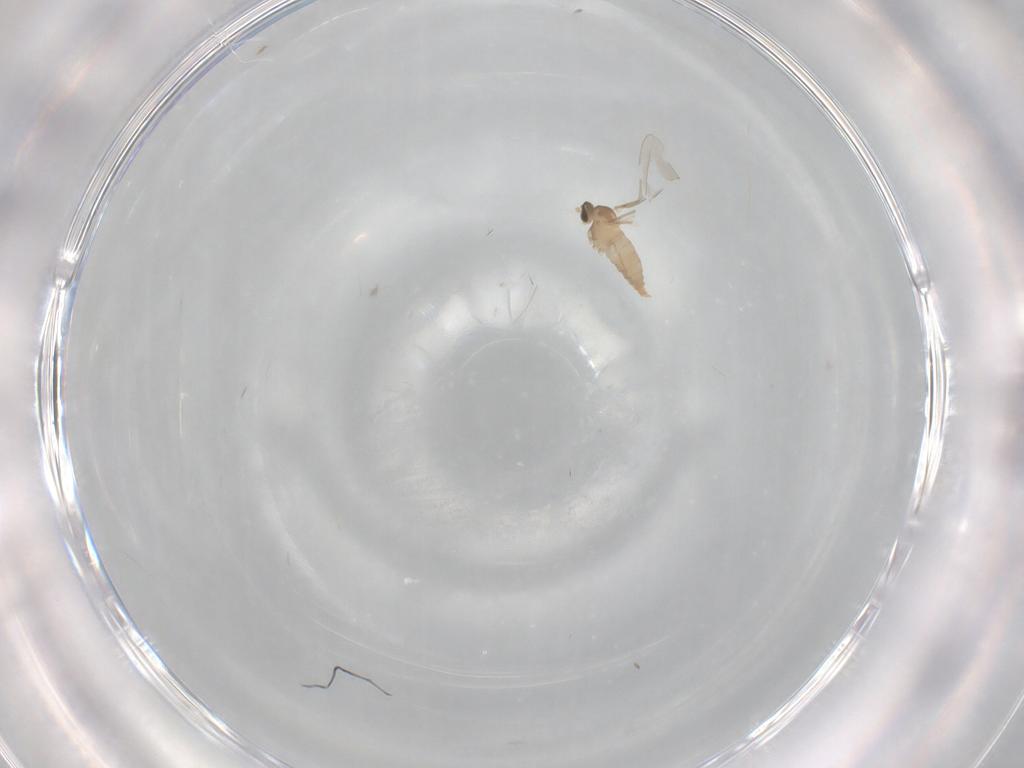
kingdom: Animalia
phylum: Arthropoda
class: Insecta
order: Diptera
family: Cecidomyiidae
